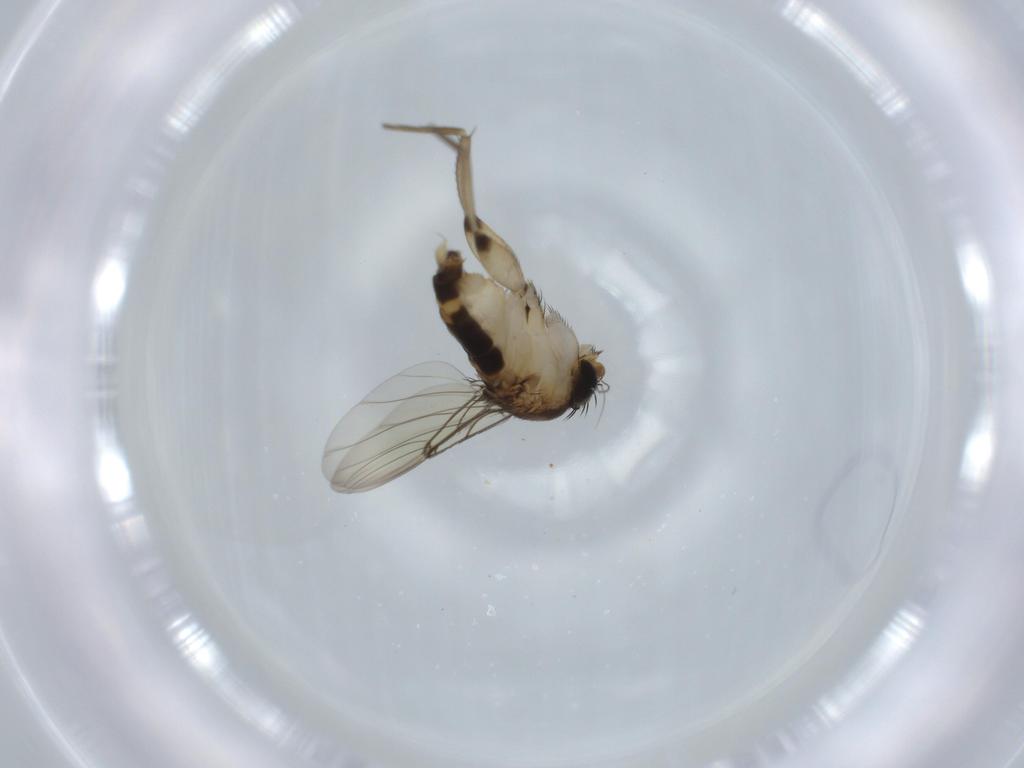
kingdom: Animalia
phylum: Arthropoda
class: Insecta
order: Diptera
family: Phoridae
